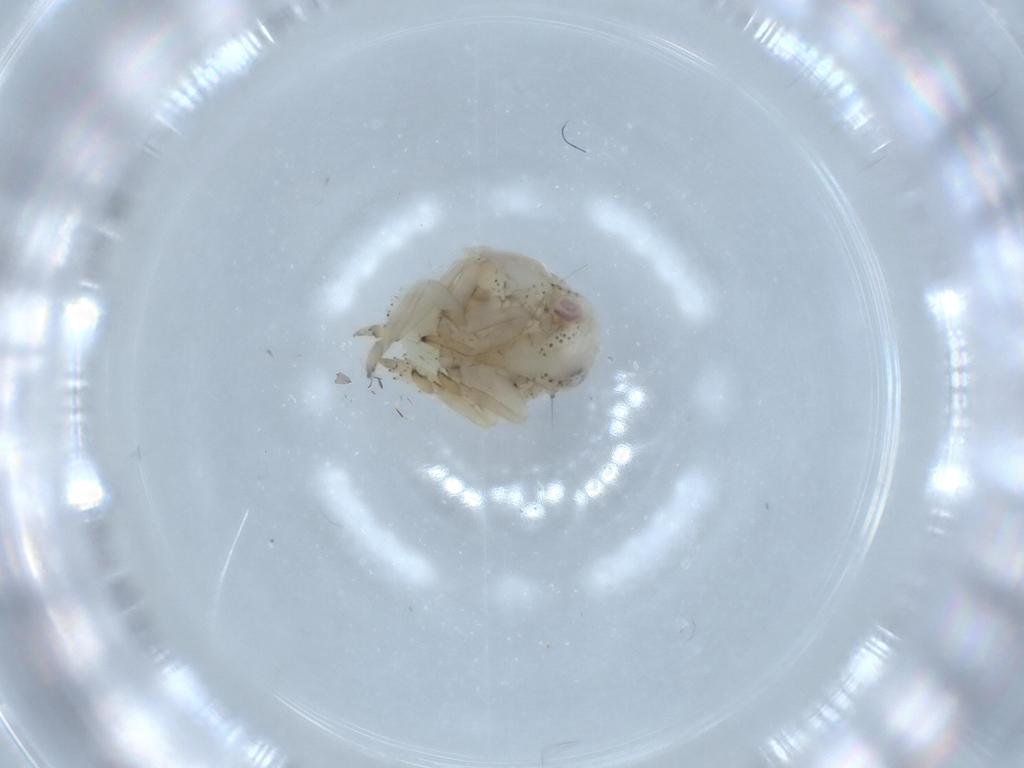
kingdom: Animalia
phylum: Arthropoda
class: Insecta
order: Hemiptera
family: Acanaloniidae
